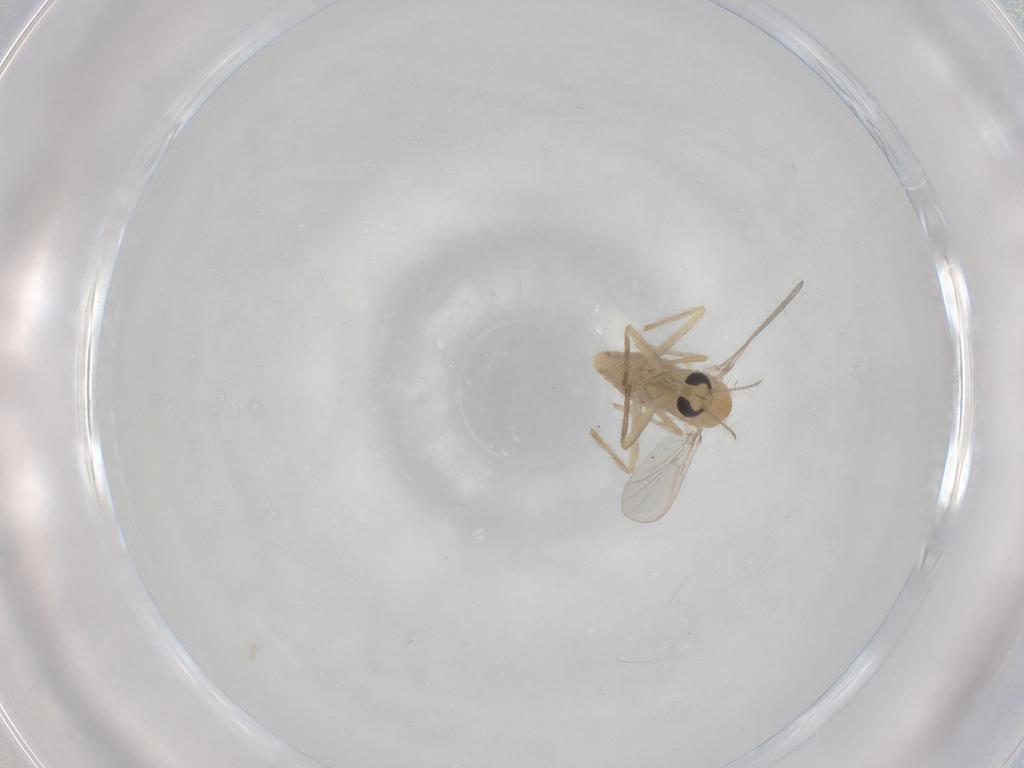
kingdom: Animalia
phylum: Arthropoda
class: Insecta
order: Diptera
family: Chironomidae
